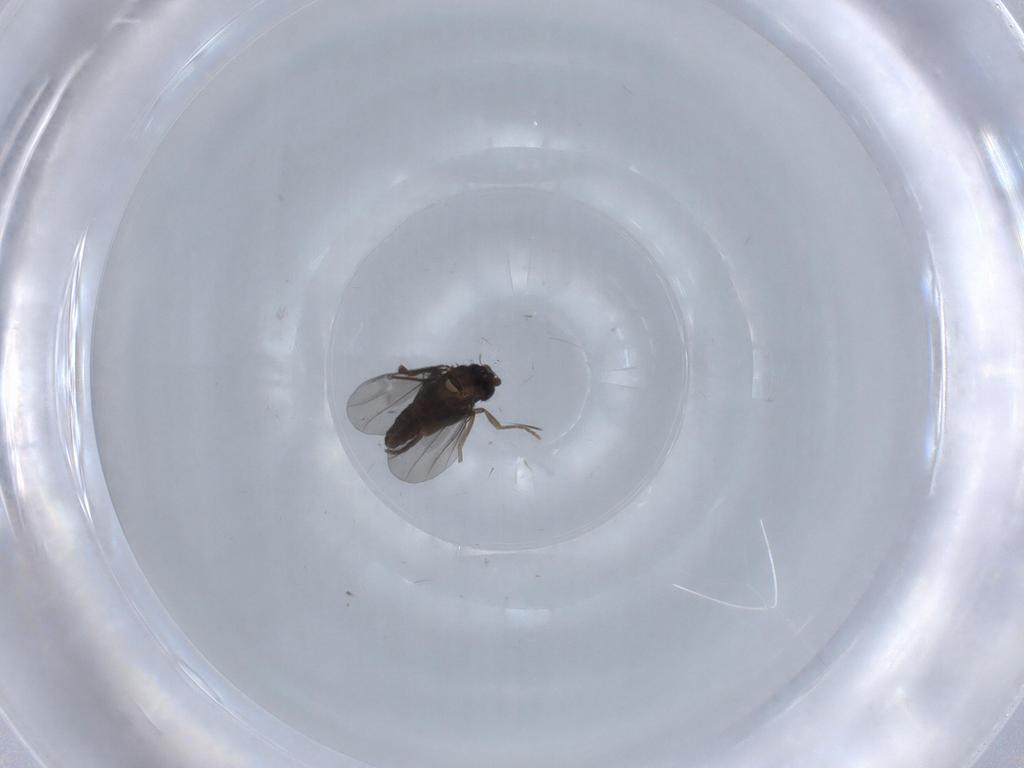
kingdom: Animalia
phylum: Arthropoda
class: Insecta
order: Diptera
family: Phoridae
